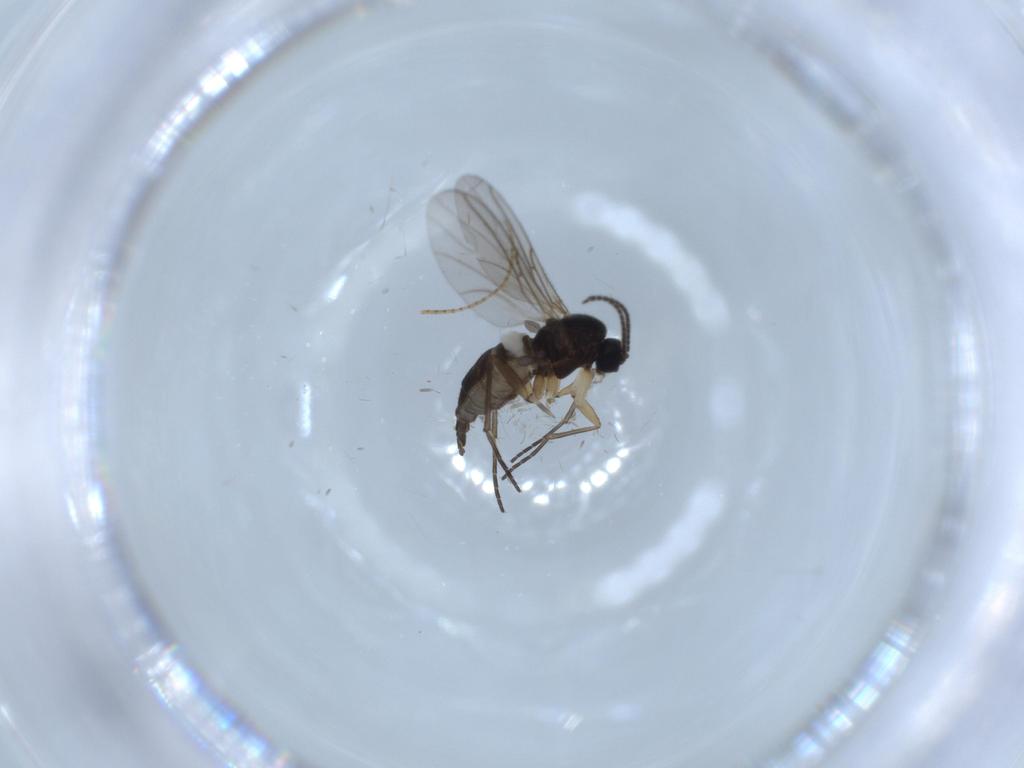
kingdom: Animalia
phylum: Arthropoda
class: Insecta
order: Diptera
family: Sciaridae
